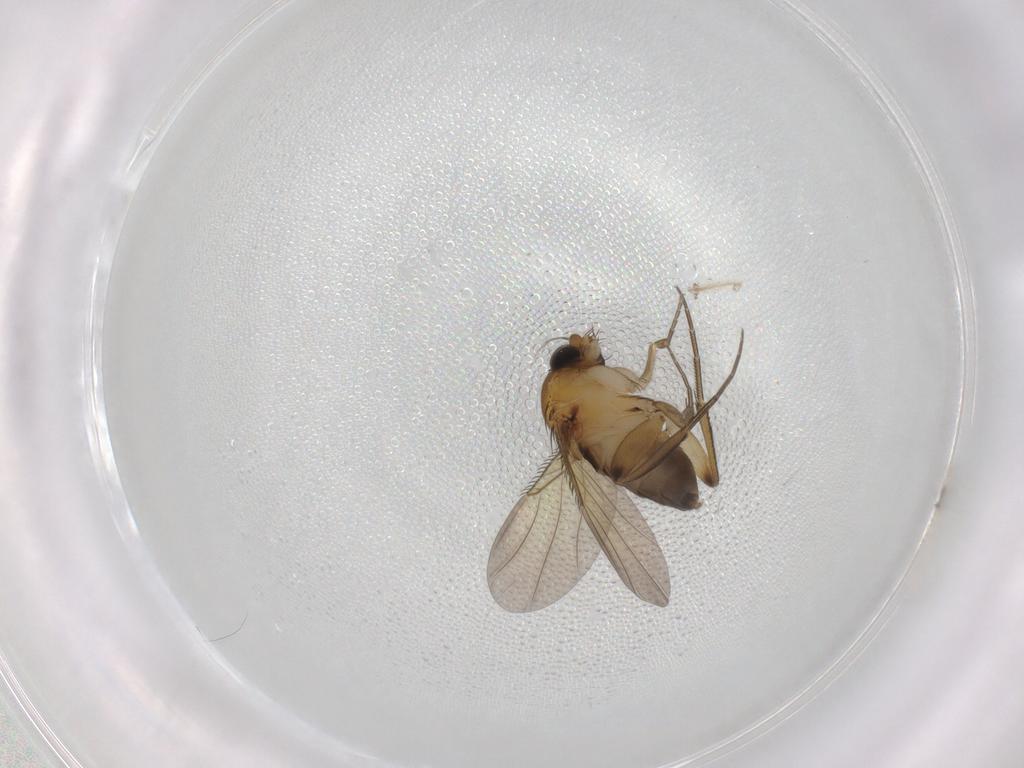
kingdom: Animalia
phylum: Arthropoda
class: Insecta
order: Diptera
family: Phoridae
